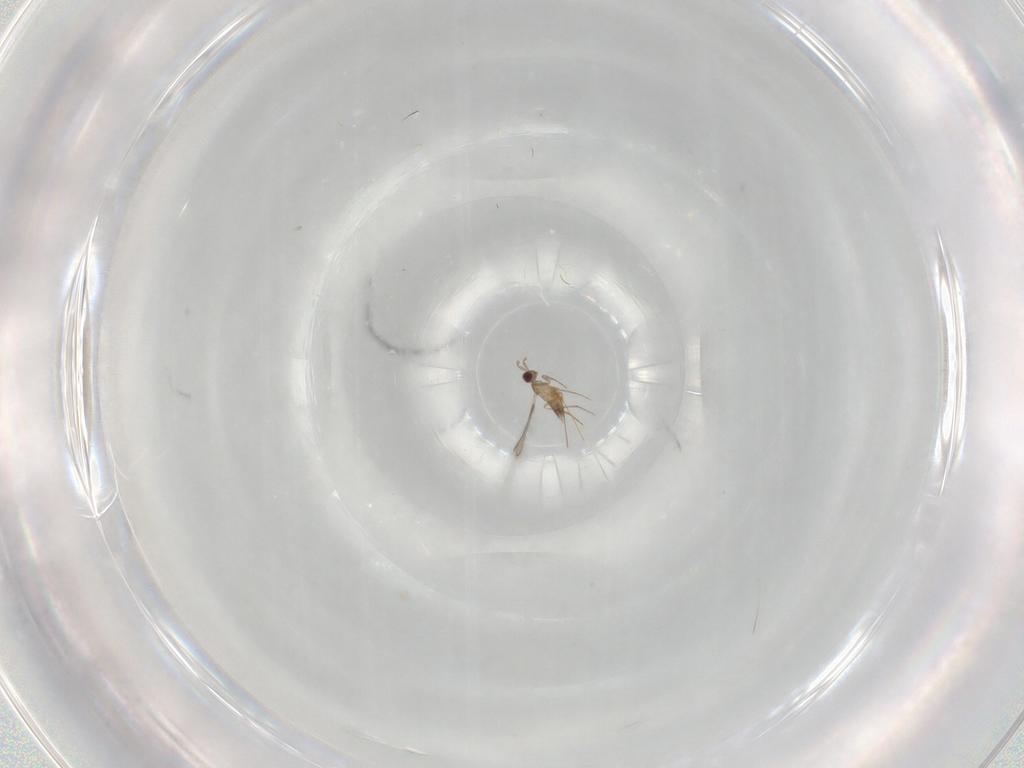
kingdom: Animalia
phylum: Arthropoda
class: Insecta
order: Hymenoptera
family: Mymaridae
